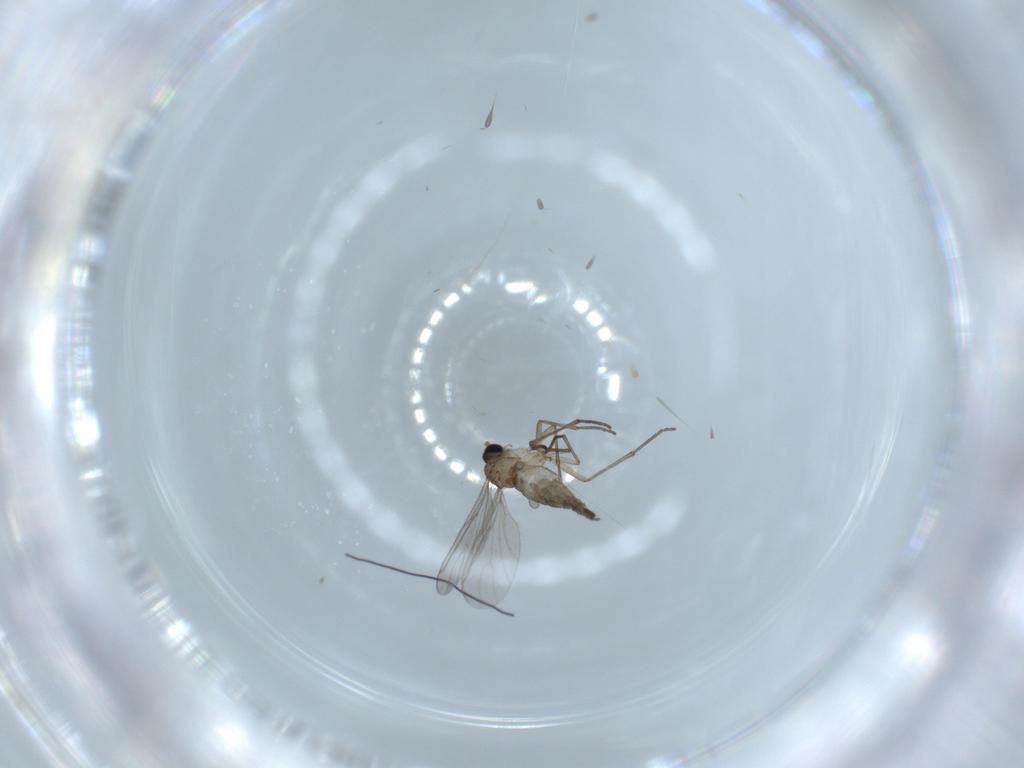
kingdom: Animalia
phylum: Arthropoda
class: Insecta
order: Diptera
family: Sciaridae
